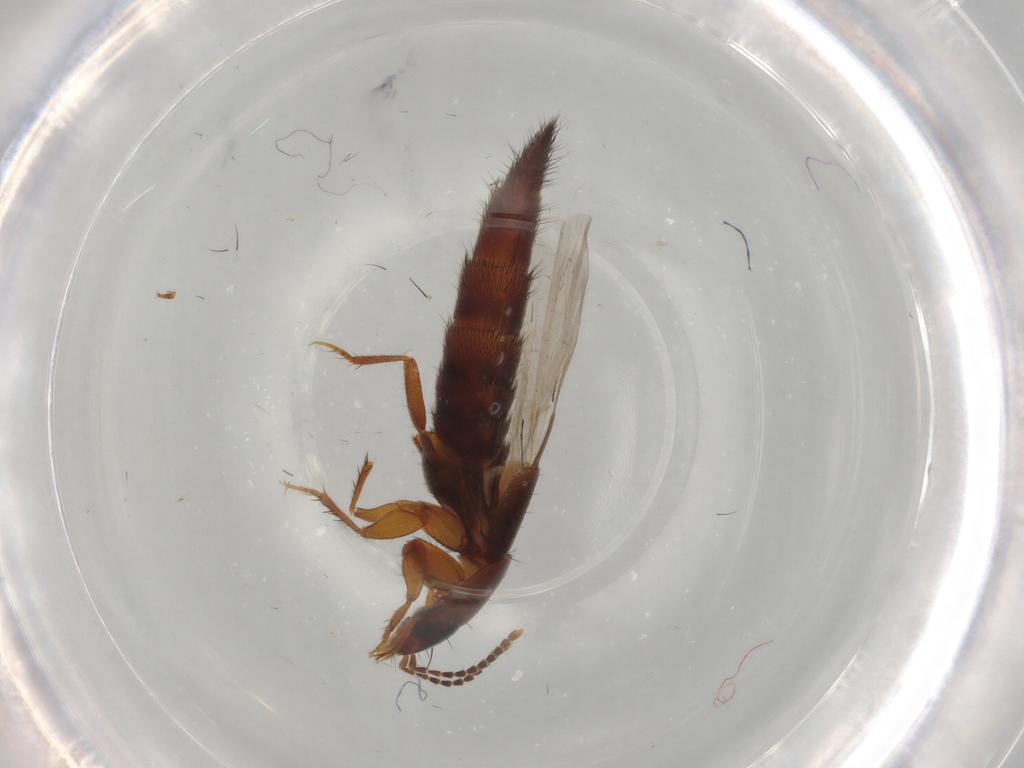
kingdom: Animalia
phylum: Arthropoda
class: Insecta
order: Coleoptera
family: Staphylinidae
